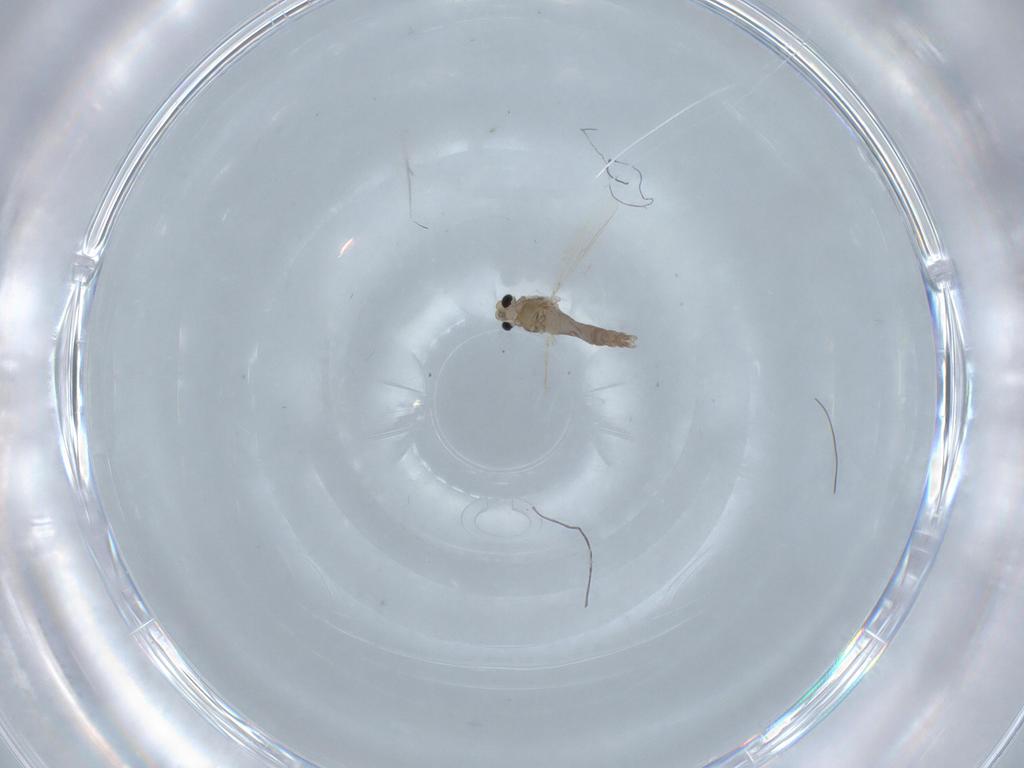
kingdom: Animalia
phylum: Arthropoda
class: Insecta
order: Diptera
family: Chironomidae
